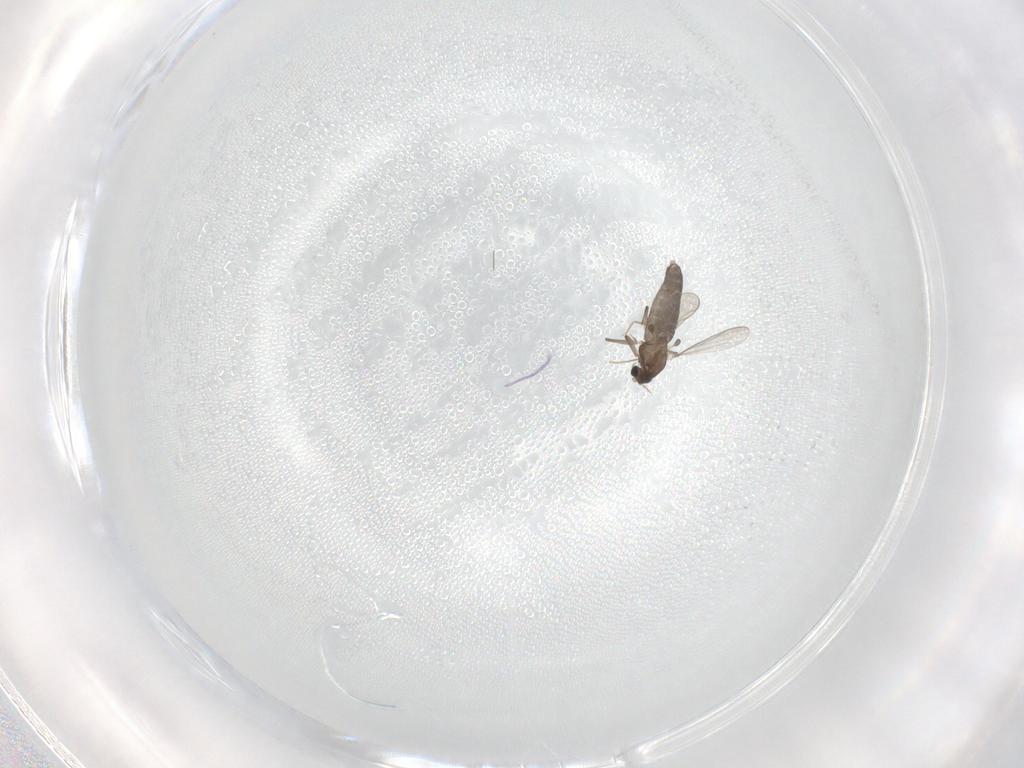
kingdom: Animalia
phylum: Arthropoda
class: Insecta
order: Diptera
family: Chironomidae
